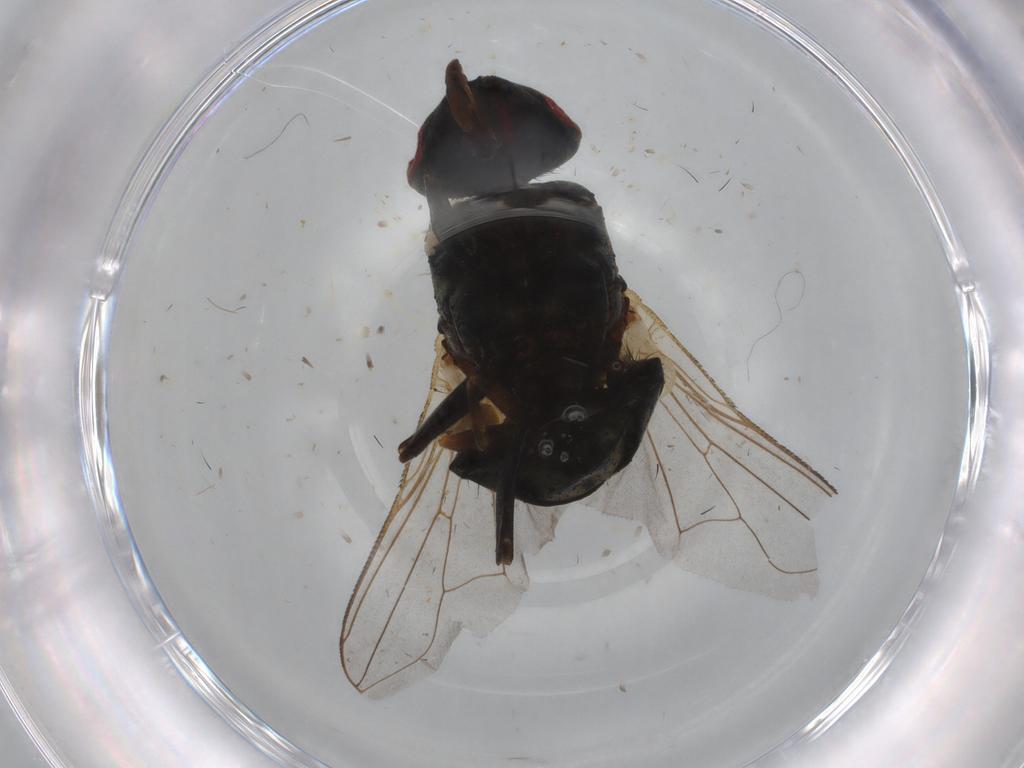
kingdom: Animalia
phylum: Arthropoda
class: Insecta
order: Diptera
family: Muscidae
